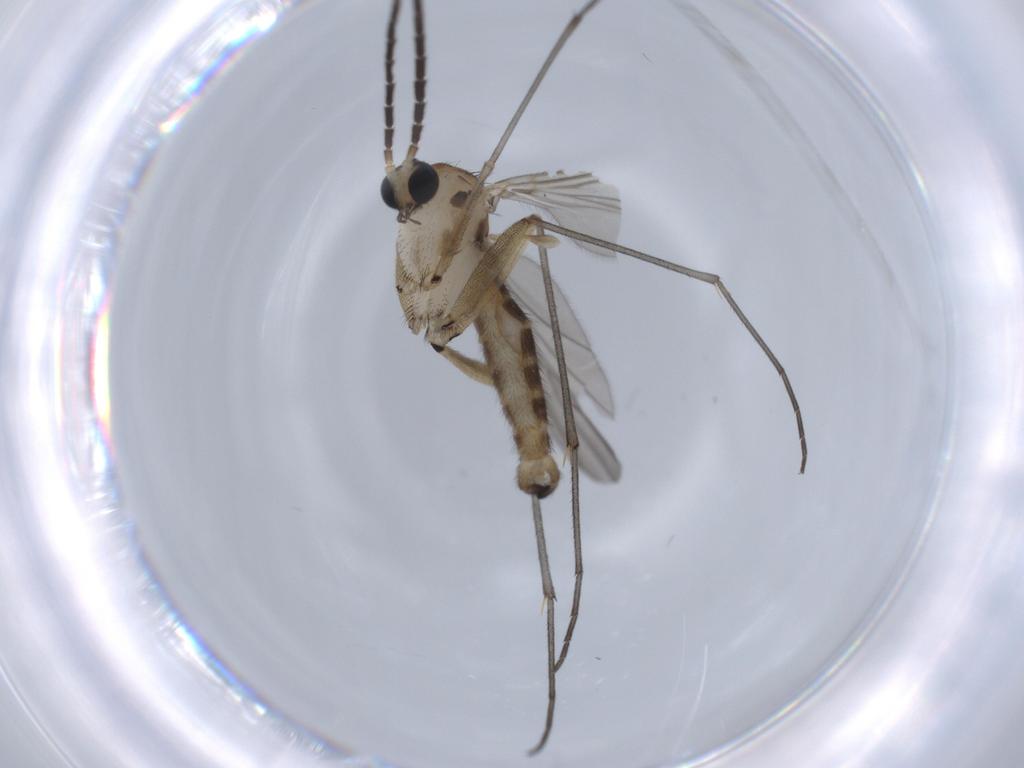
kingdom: Animalia
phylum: Arthropoda
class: Insecta
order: Diptera
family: Sciaridae
